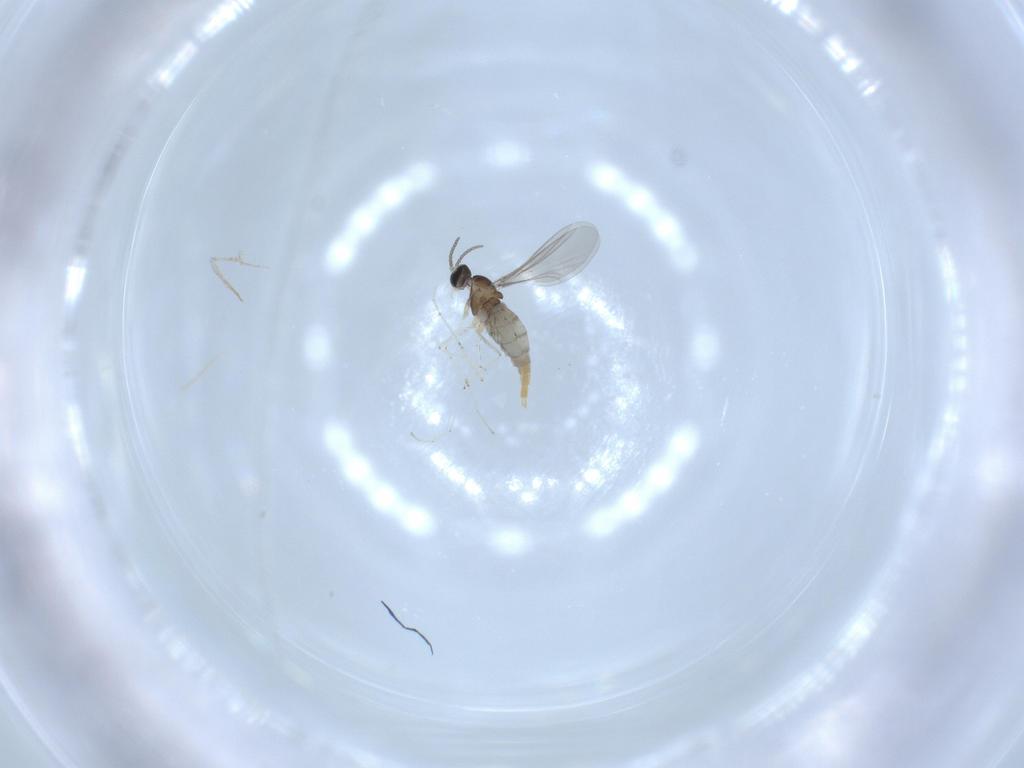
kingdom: Animalia
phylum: Arthropoda
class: Insecta
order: Diptera
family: Cecidomyiidae
